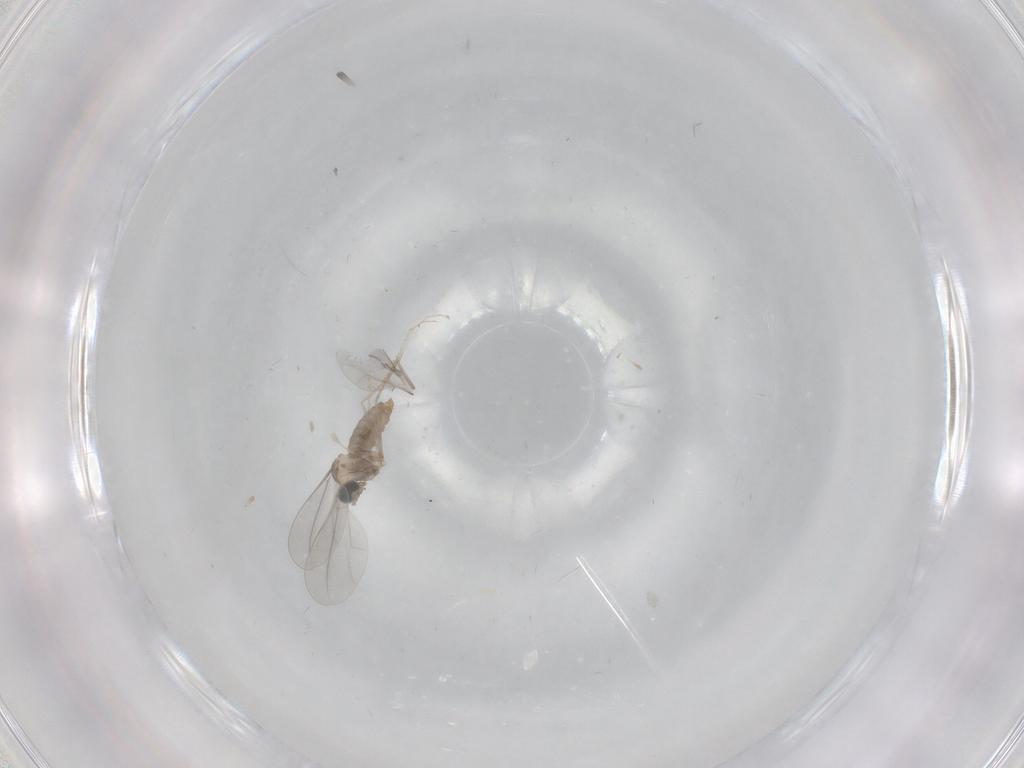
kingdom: Animalia
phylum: Arthropoda
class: Insecta
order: Diptera
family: Cecidomyiidae
